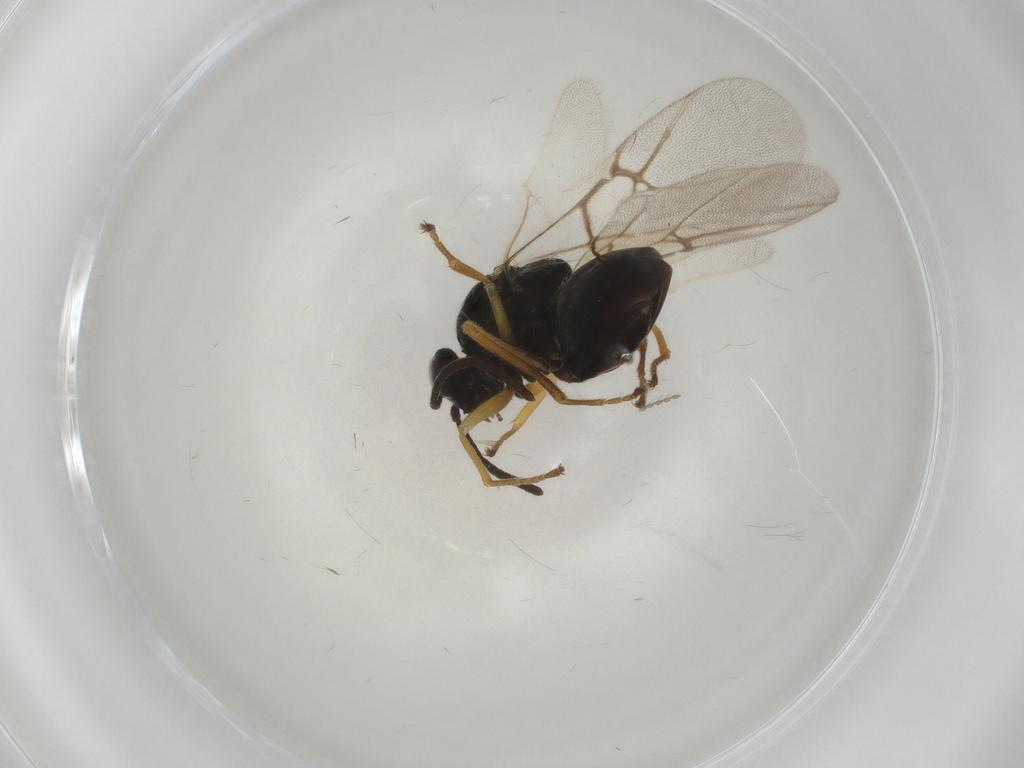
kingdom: Animalia
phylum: Arthropoda
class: Insecta
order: Hymenoptera
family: Cynipidae
